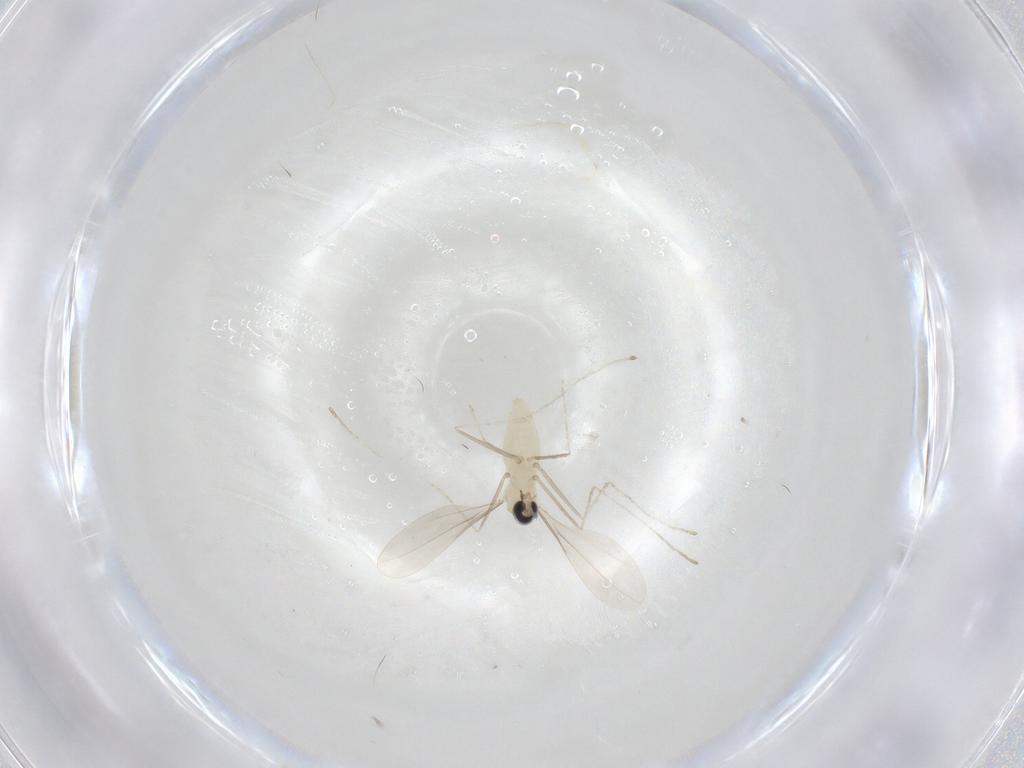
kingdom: Animalia
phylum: Arthropoda
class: Insecta
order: Diptera
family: Cecidomyiidae
